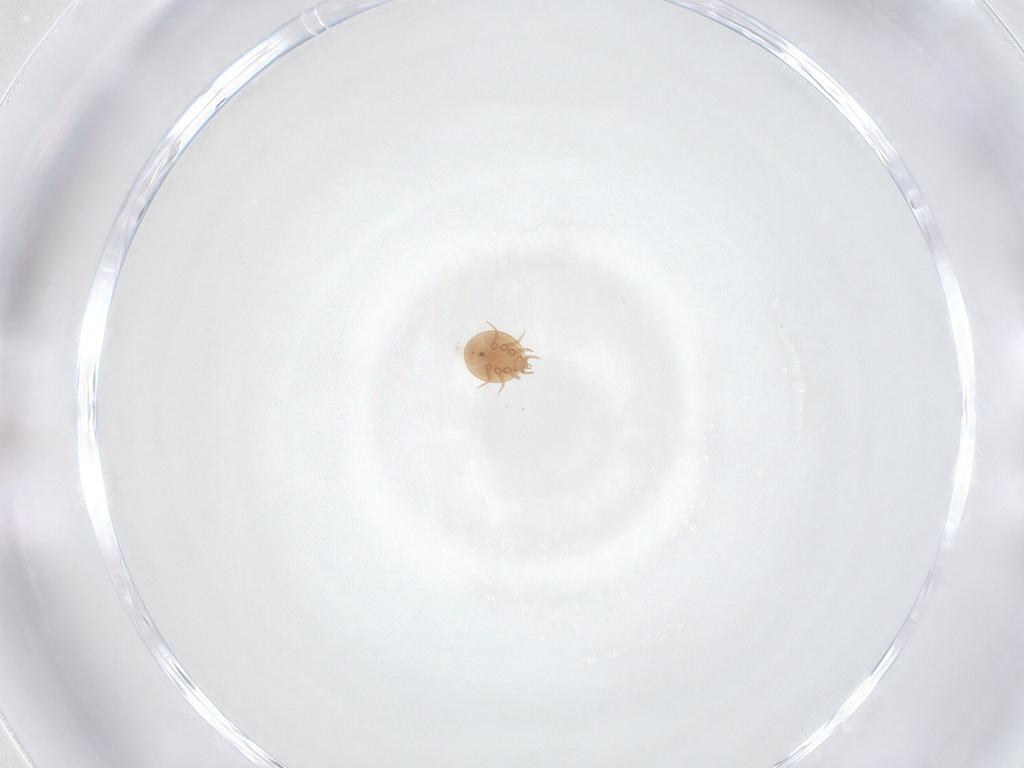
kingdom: Animalia
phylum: Arthropoda
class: Arachnida
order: Mesostigmata
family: Trematuridae
